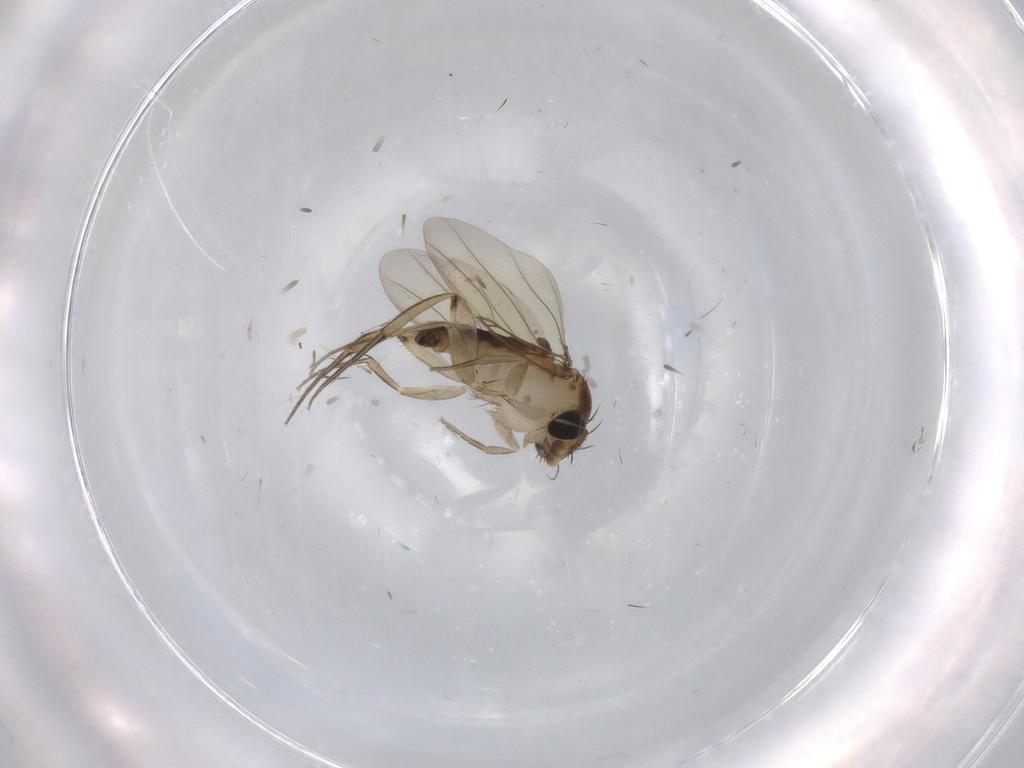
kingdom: Animalia
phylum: Arthropoda
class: Insecta
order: Diptera
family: Phoridae
